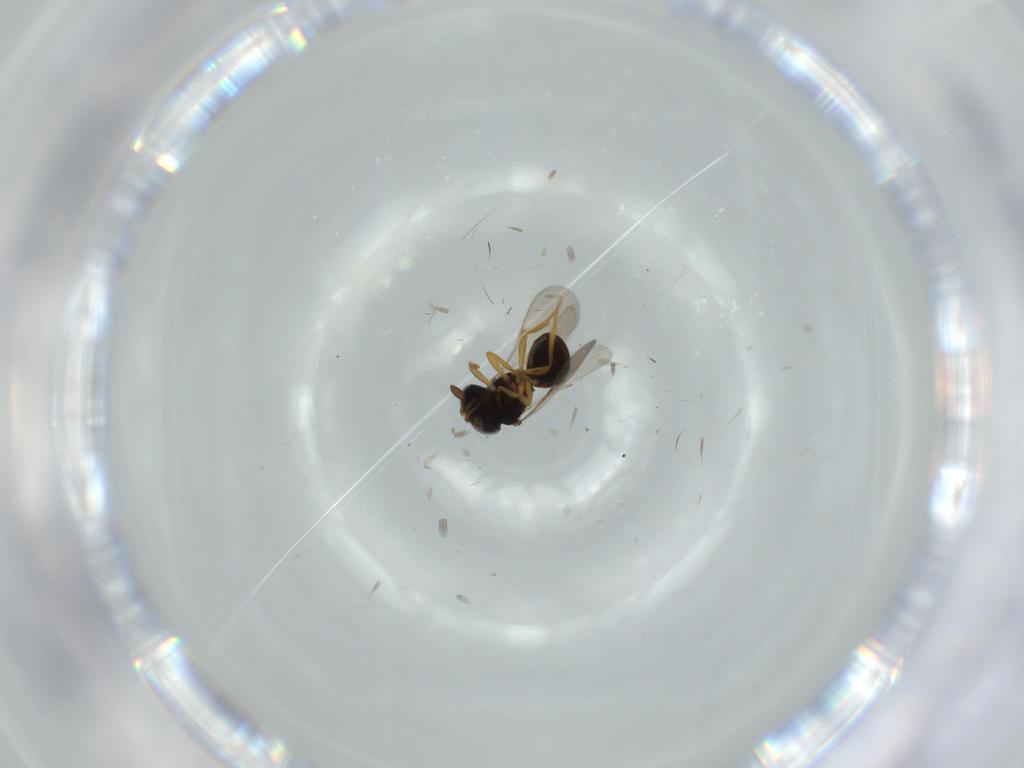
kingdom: Animalia
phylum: Arthropoda
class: Insecta
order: Hymenoptera
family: Scelionidae
